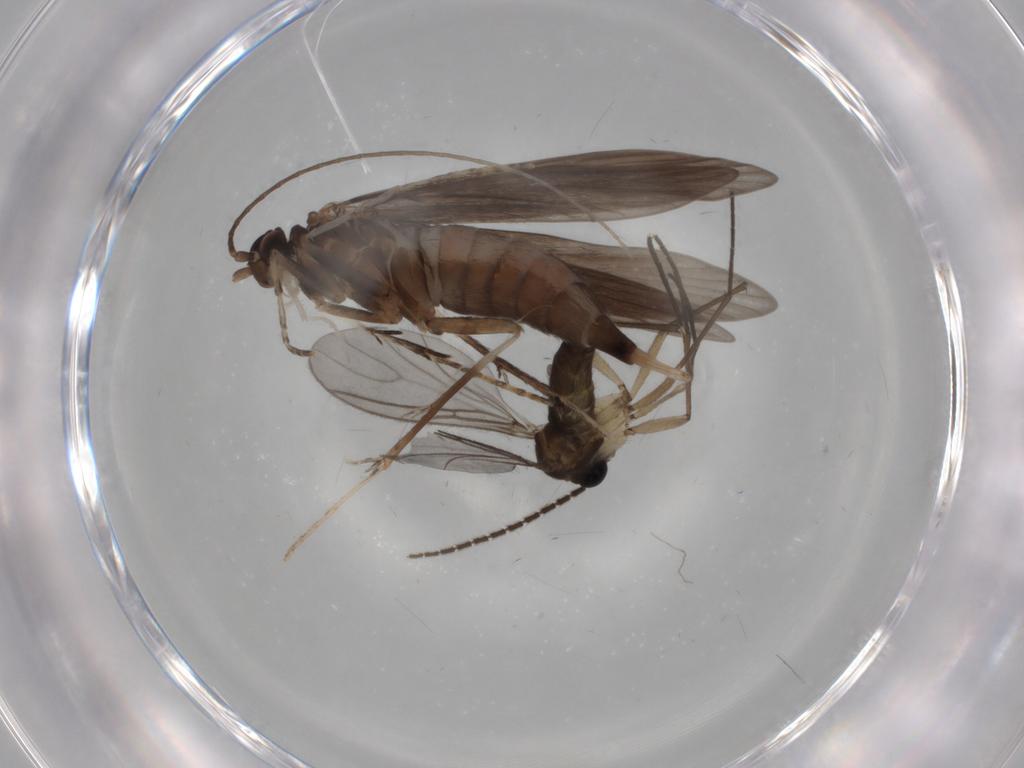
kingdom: Animalia
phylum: Arthropoda
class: Insecta
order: Trichoptera
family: Xiphocentronidae
